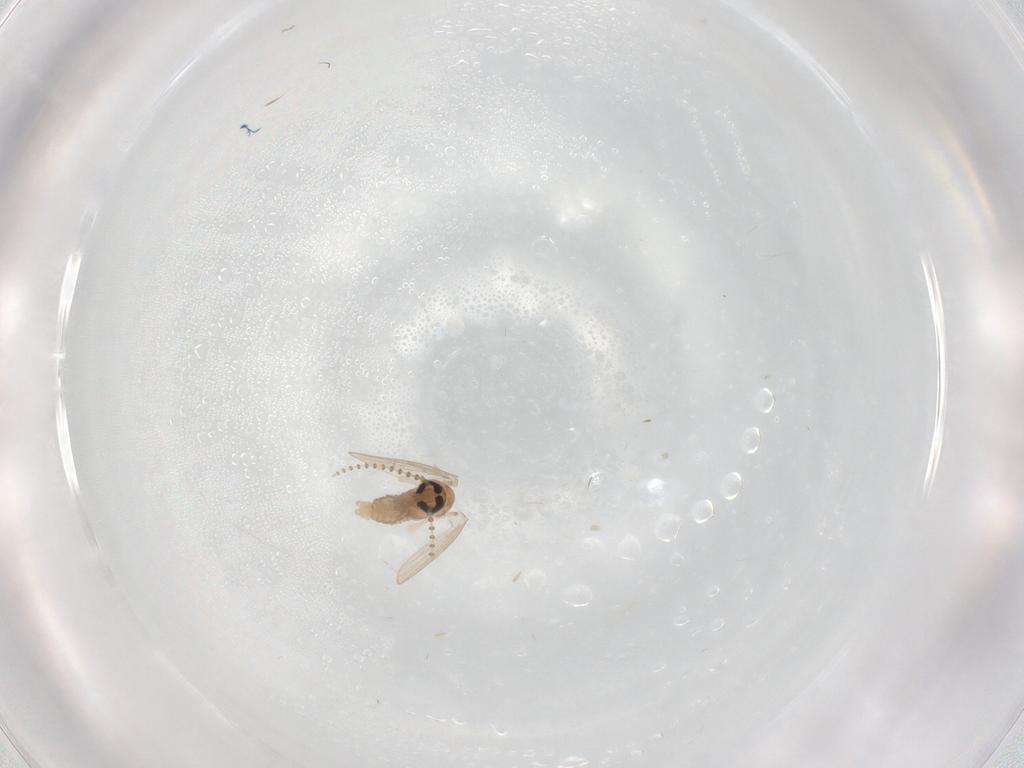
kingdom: Animalia
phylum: Arthropoda
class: Insecta
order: Diptera
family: Psychodidae
